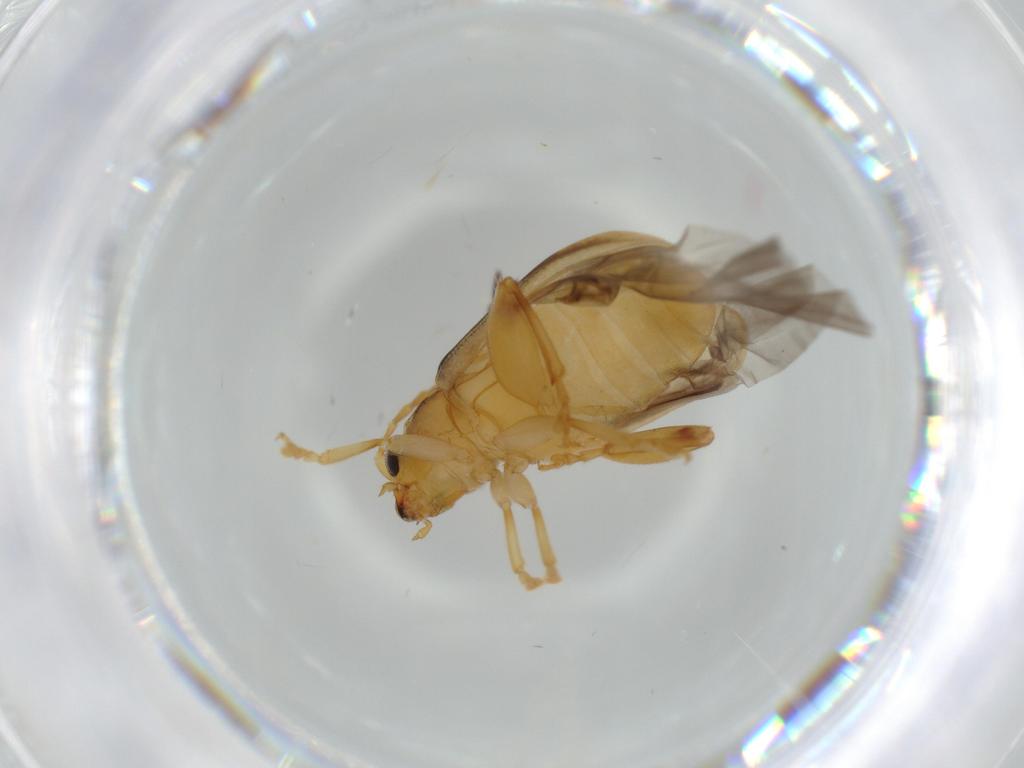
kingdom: Animalia
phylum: Arthropoda
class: Insecta
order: Coleoptera
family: Chrysomelidae
